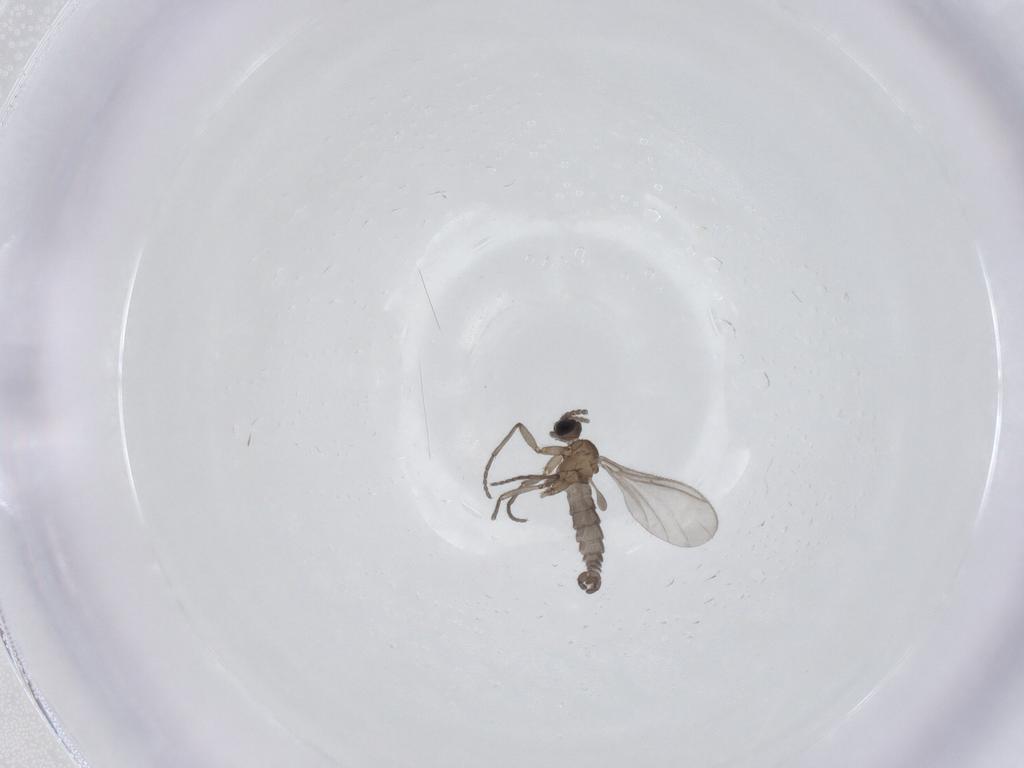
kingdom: Animalia
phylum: Arthropoda
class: Insecta
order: Diptera
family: Sciaridae
